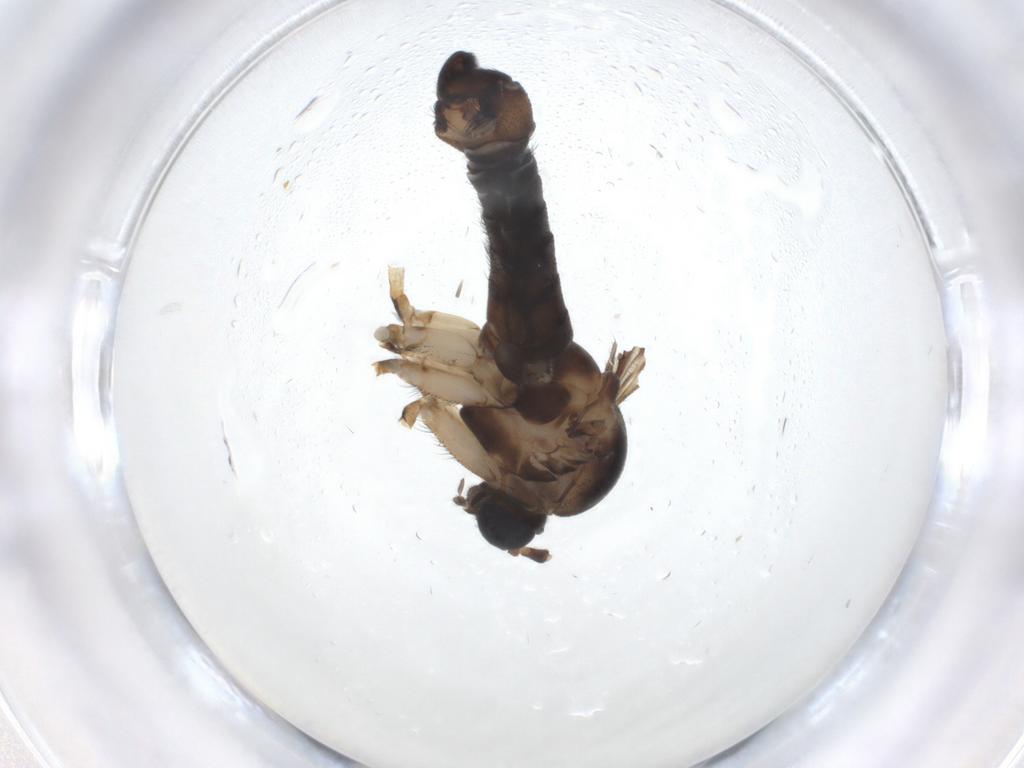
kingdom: Animalia
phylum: Arthropoda
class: Insecta
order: Diptera
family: Sciaridae
